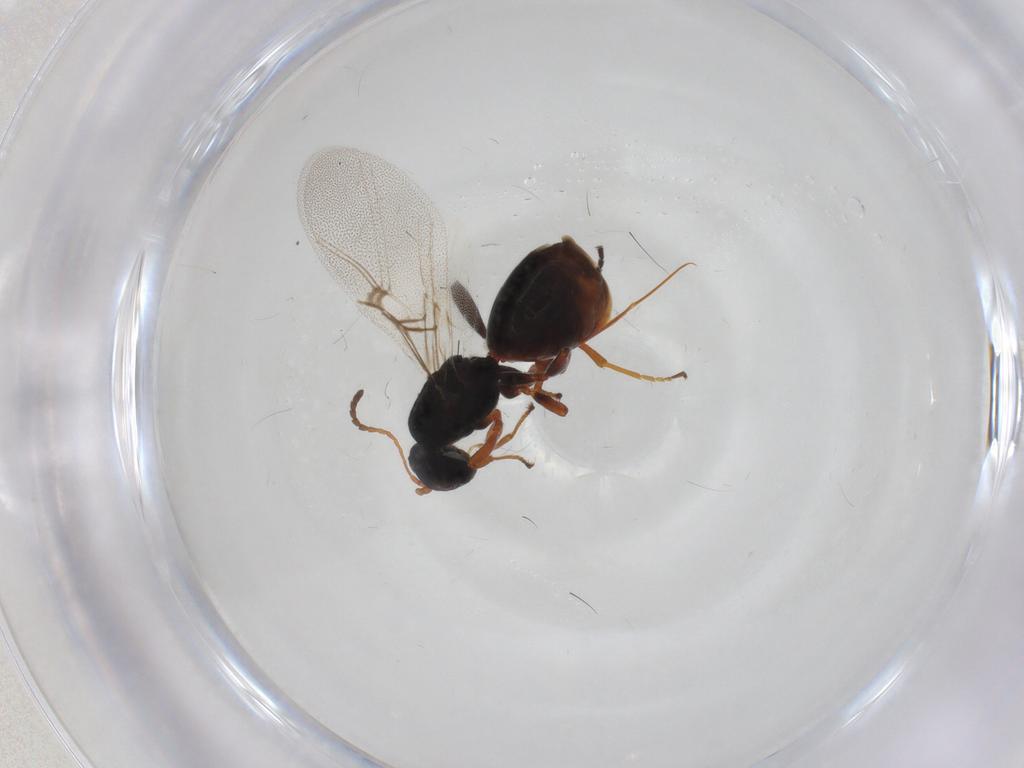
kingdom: Animalia
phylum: Arthropoda
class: Insecta
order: Hymenoptera
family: Cynipidae
